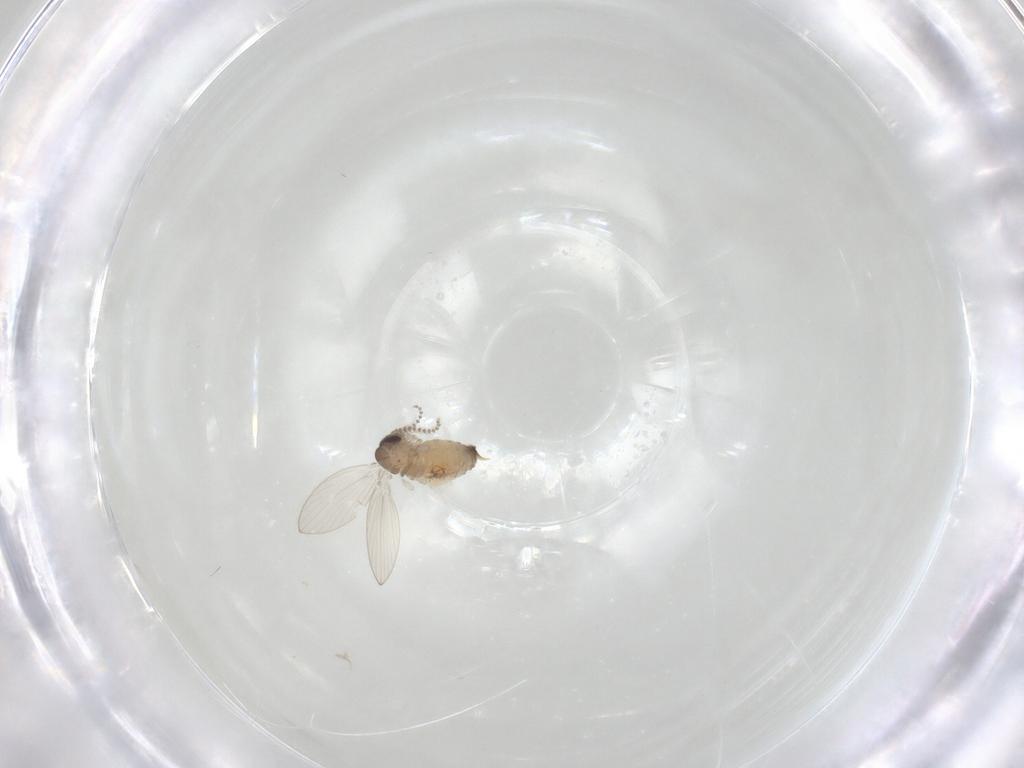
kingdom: Animalia
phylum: Arthropoda
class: Insecta
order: Diptera
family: Psychodidae
